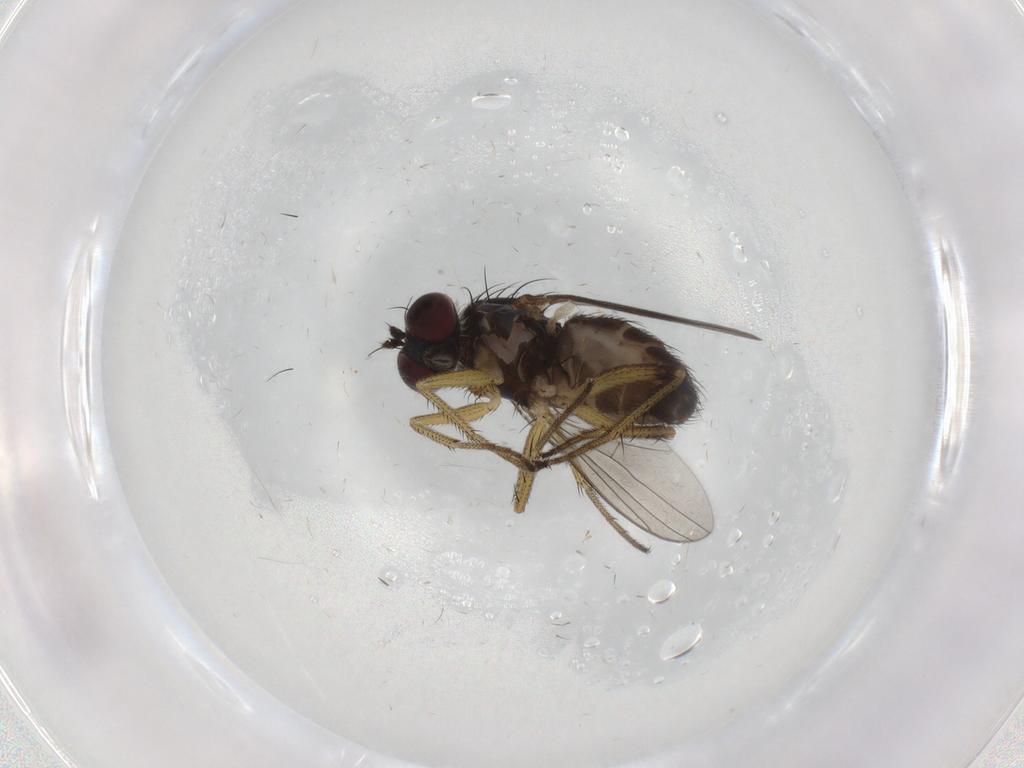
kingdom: Animalia
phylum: Arthropoda
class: Insecta
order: Diptera
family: Dolichopodidae
